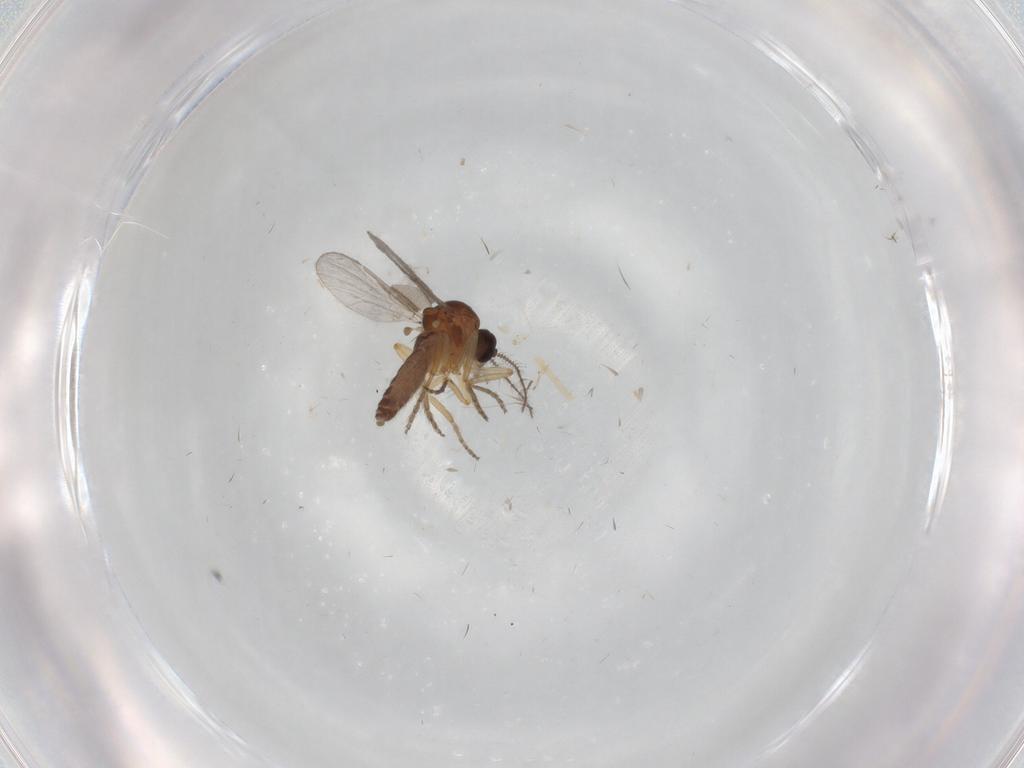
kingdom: Animalia
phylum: Arthropoda
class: Insecta
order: Diptera
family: Ceratopogonidae
